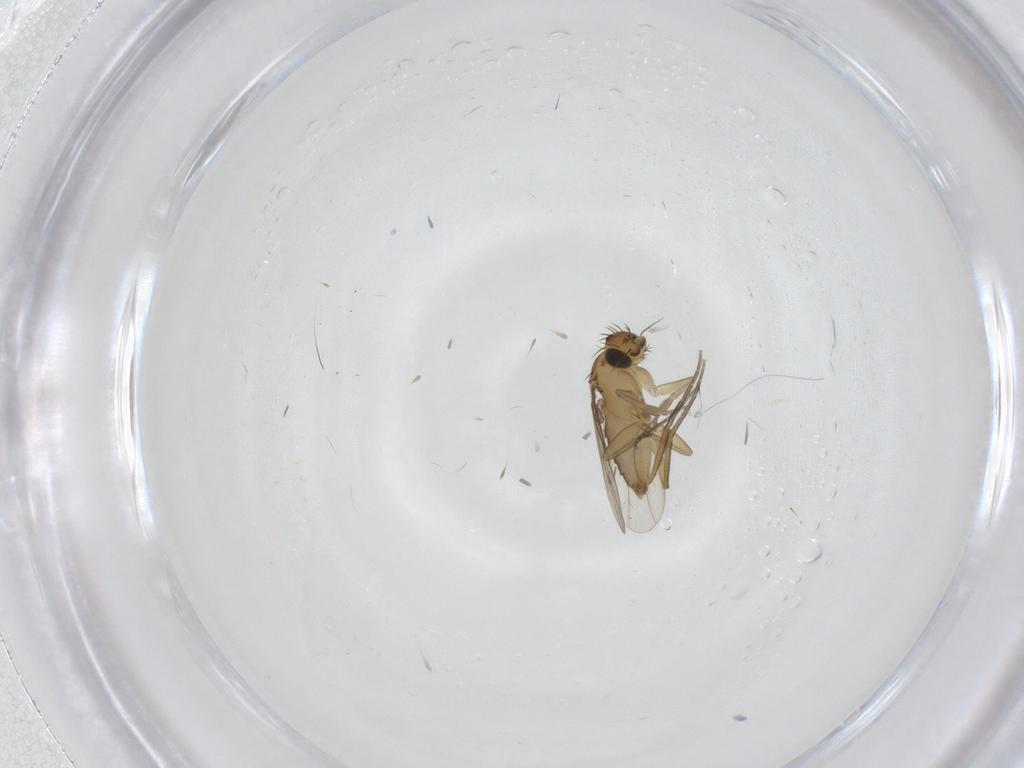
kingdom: Animalia
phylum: Arthropoda
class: Insecta
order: Diptera
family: Phoridae
